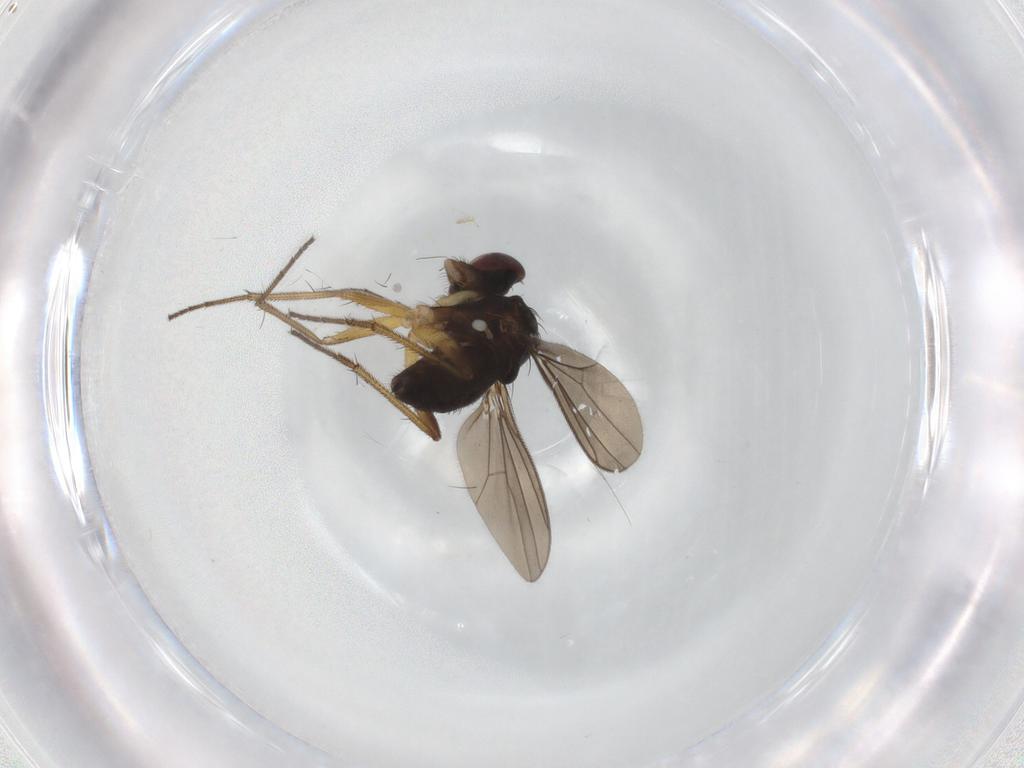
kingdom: Animalia
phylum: Arthropoda
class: Insecta
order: Diptera
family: Dolichopodidae
